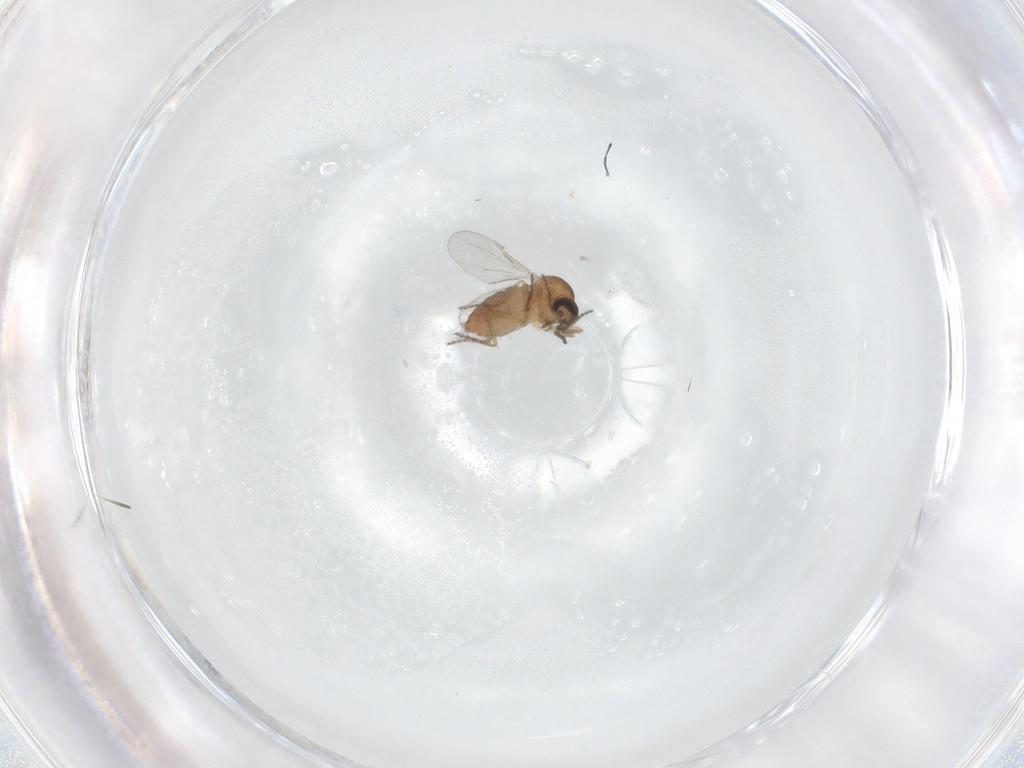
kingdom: Animalia
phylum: Arthropoda
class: Insecta
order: Diptera
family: Ceratopogonidae
